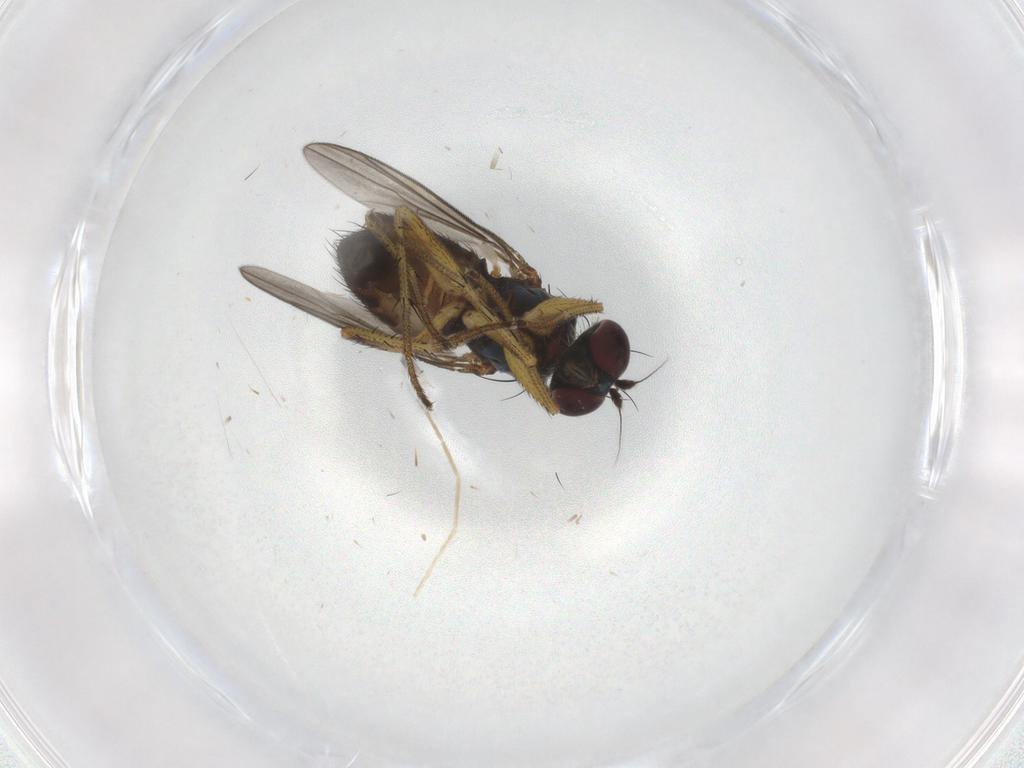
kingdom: Animalia
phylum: Arthropoda
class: Insecta
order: Diptera
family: Dolichopodidae
